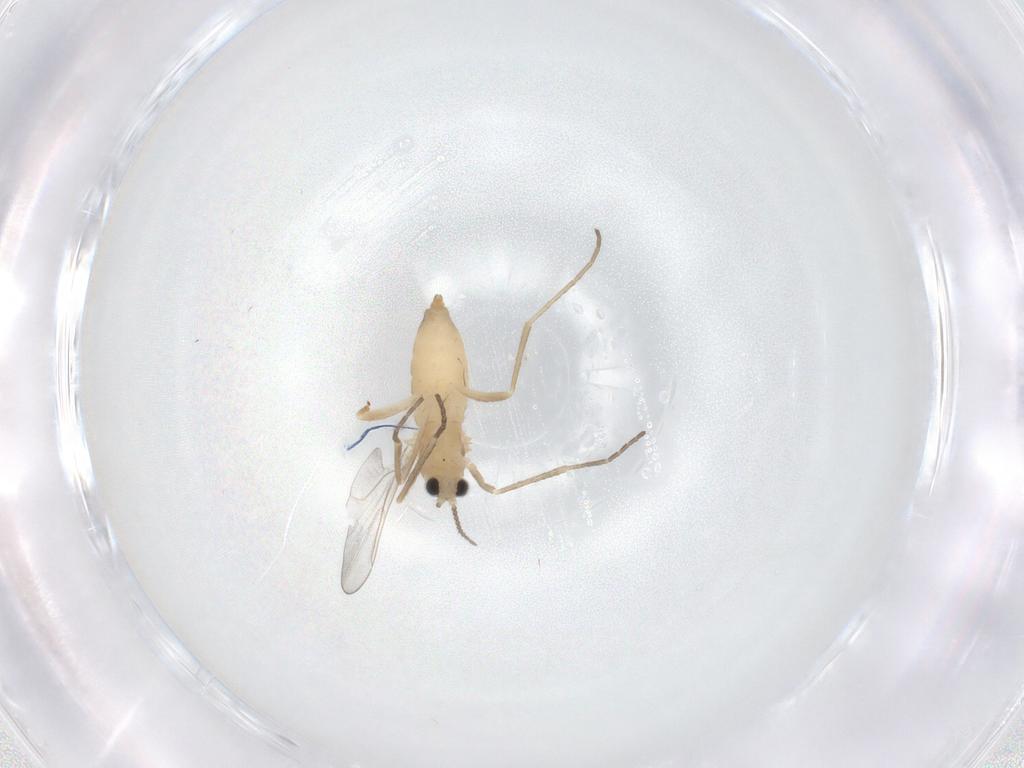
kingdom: Animalia
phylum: Arthropoda
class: Insecta
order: Diptera
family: Cecidomyiidae
